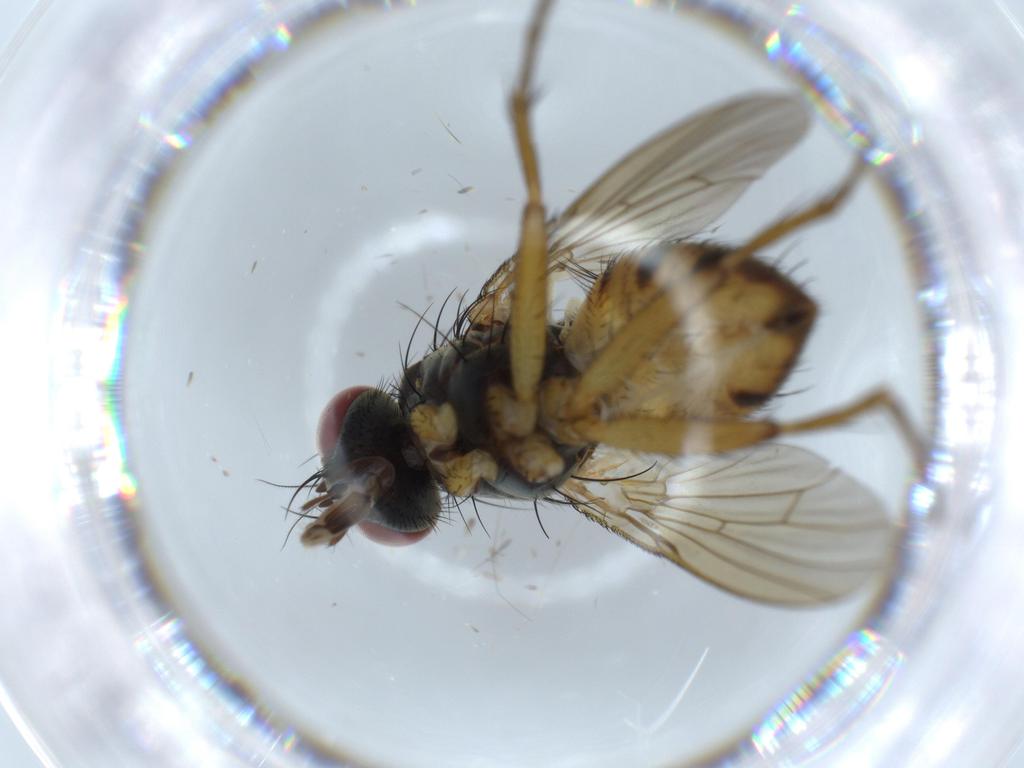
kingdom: Animalia
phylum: Arthropoda
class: Insecta
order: Diptera
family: Muscidae
